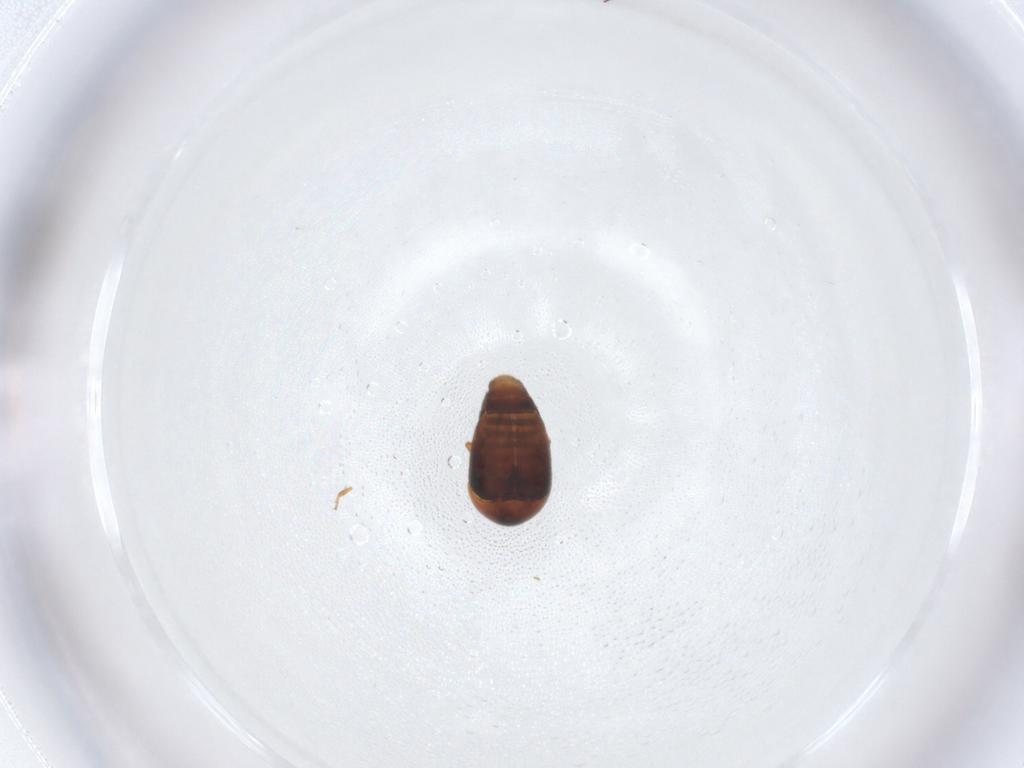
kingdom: Animalia
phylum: Arthropoda
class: Insecta
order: Coleoptera
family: Corylophidae
